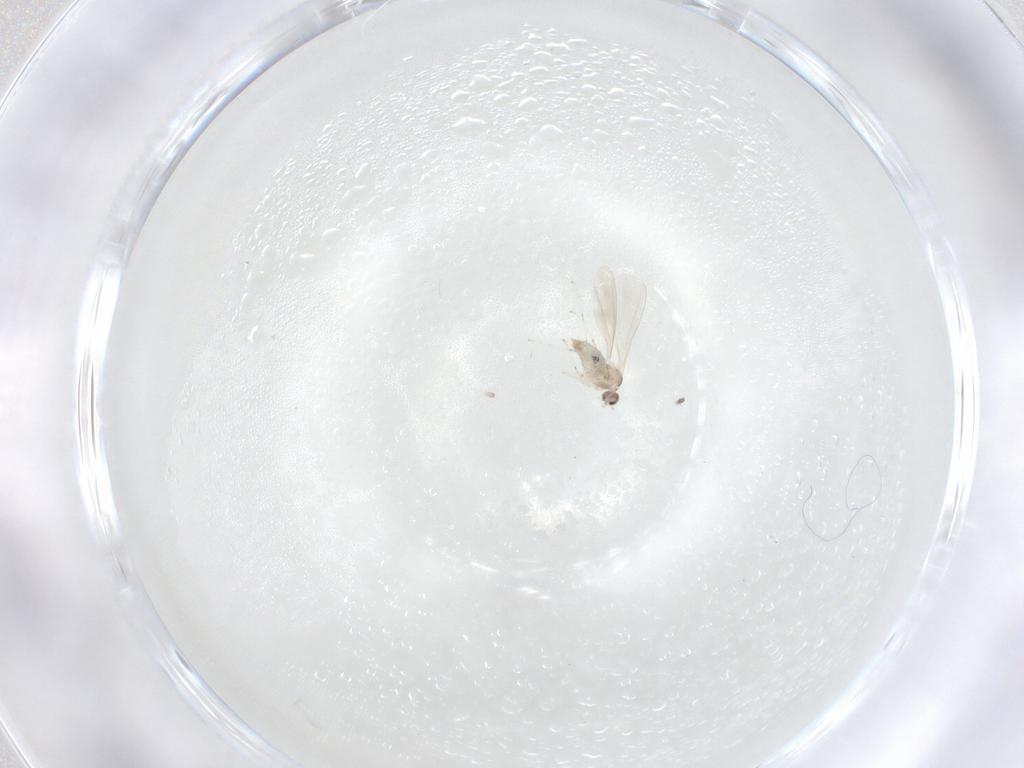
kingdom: Animalia
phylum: Arthropoda
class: Insecta
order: Diptera
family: Cecidomyiidae
